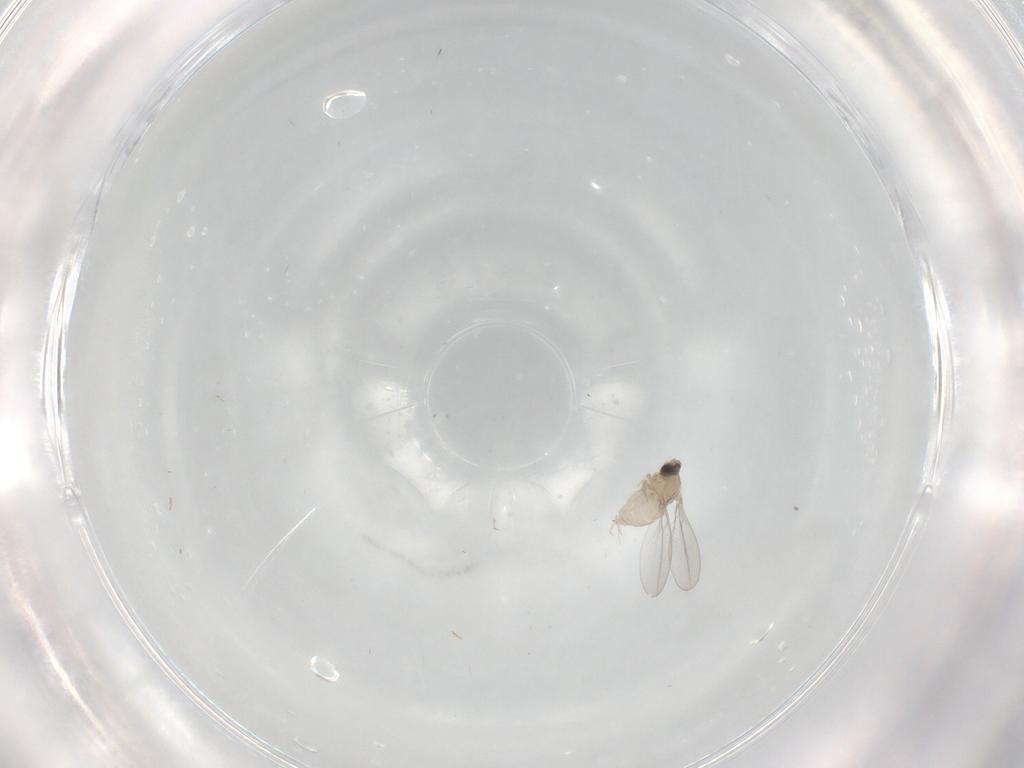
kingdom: Animalia
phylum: Arthropoda
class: Insecta
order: Diptera
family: Cecidomyiidae
